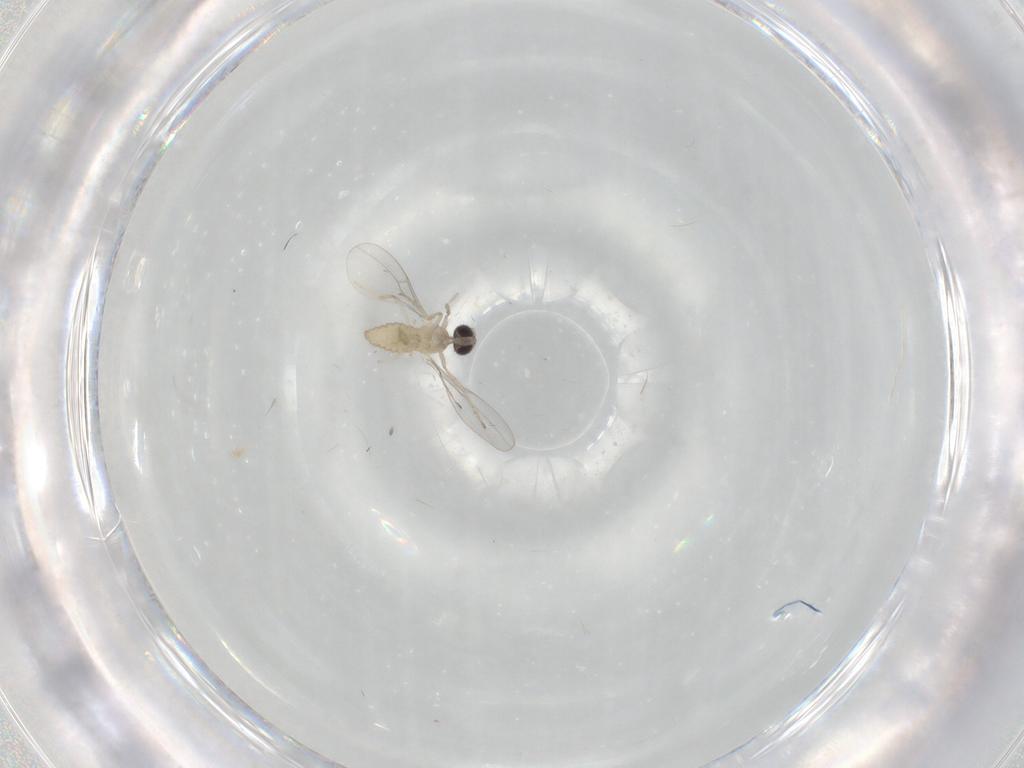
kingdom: Animalia
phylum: Arthropoda
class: Insecta
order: Diptera
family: Cecidomyiidae
